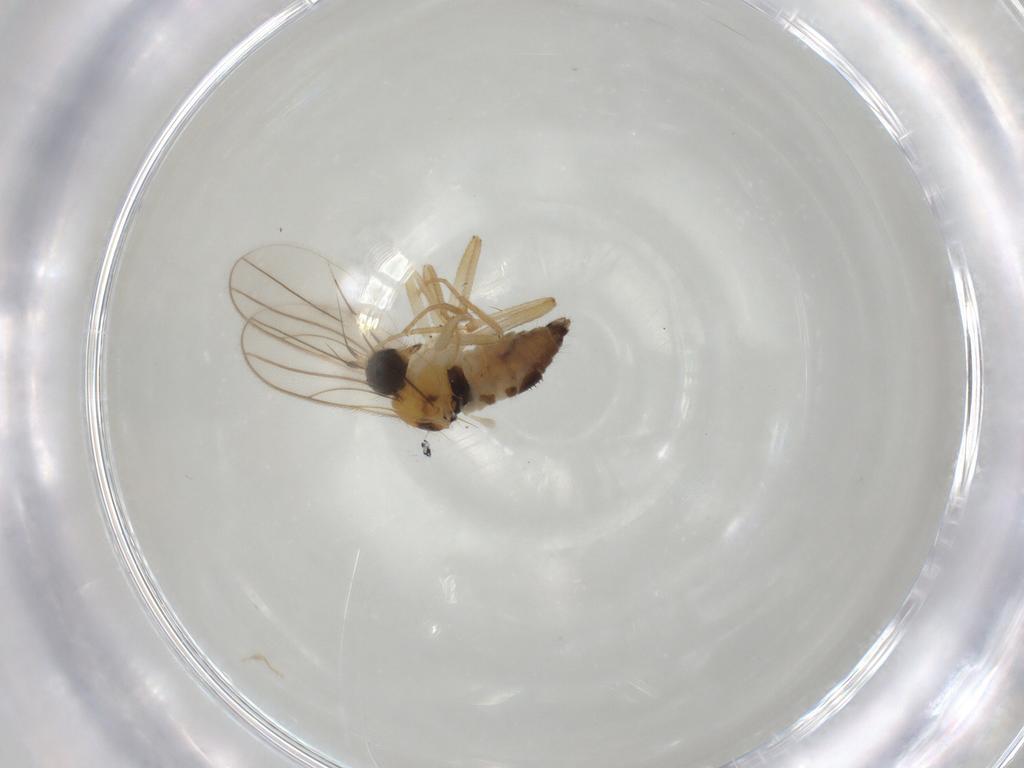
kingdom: Animalia
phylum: Arthropoda
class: Insecta
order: Diptera
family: Hybotidae
